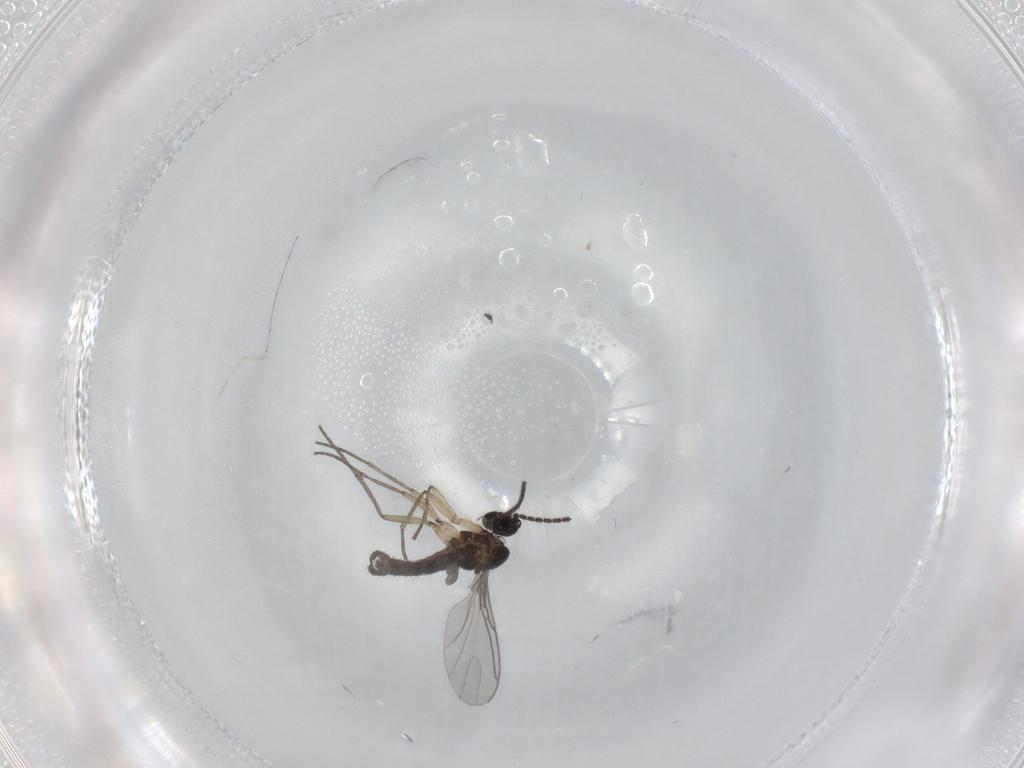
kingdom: Animalia
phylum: Arthropoda
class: Insecta
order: Diptera
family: Sciaridae
